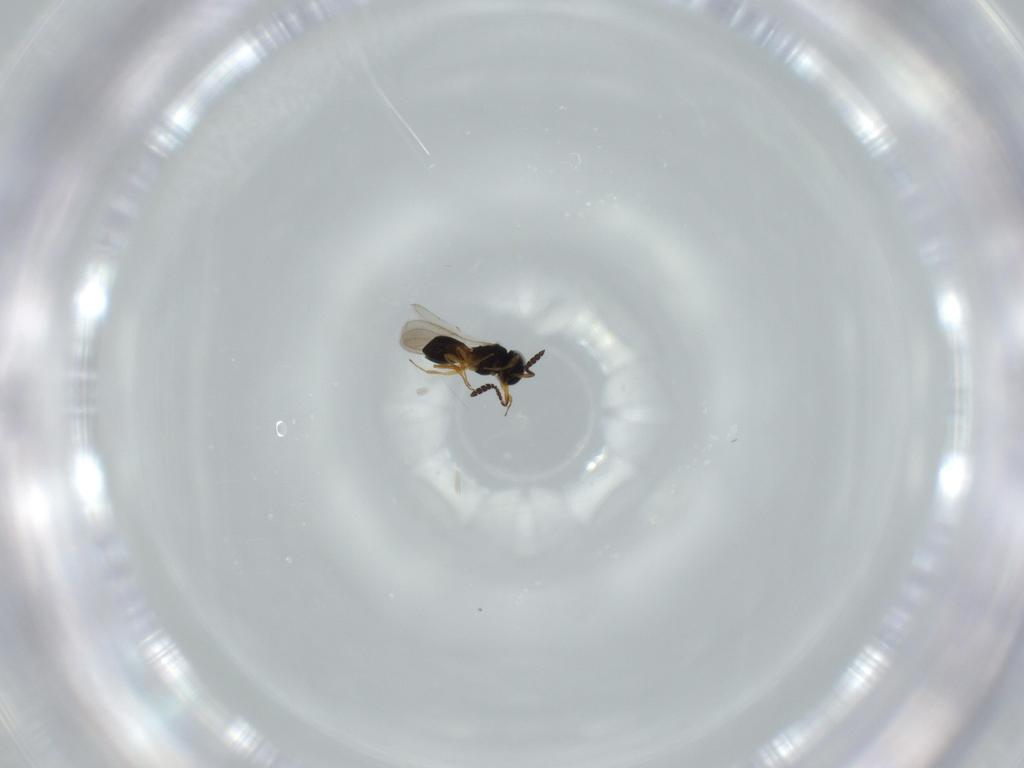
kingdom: Animalia
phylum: Arthropoda
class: Insecta
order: Hymenoptera
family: Scelionidae
